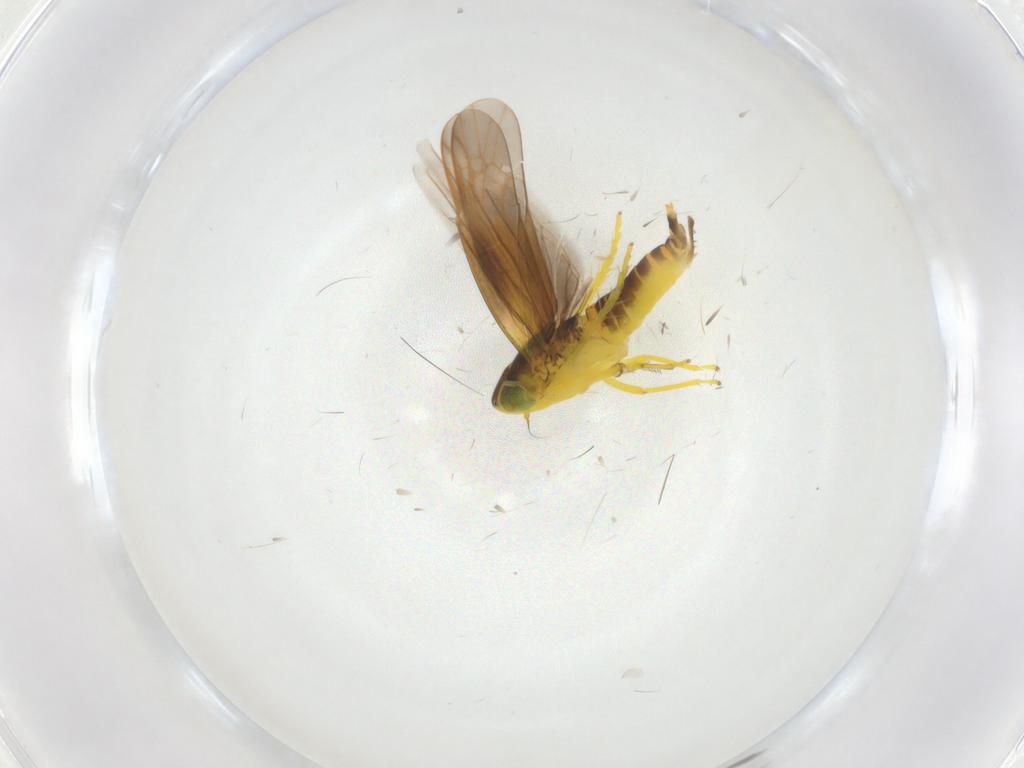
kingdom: Animalia
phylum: Arthropoda
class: Insecta
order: Hemiptera
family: Cicadellidae
